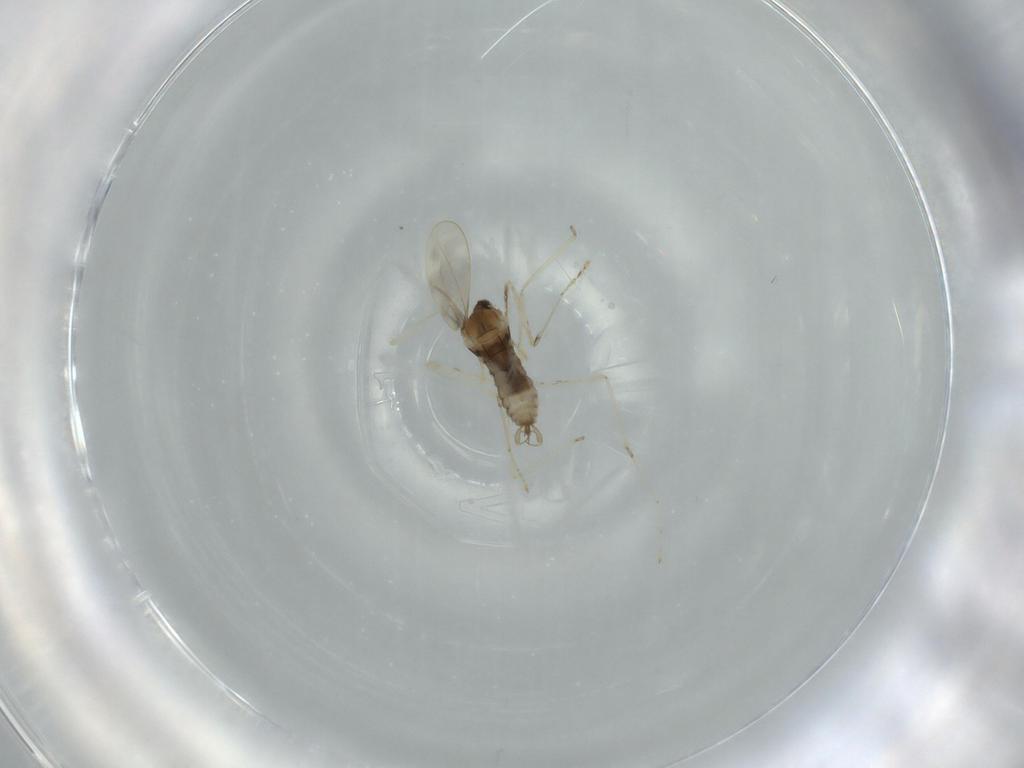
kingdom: Animalia
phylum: Arthropoda
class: Insecta
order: Diptera
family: Cecidomyiidae
